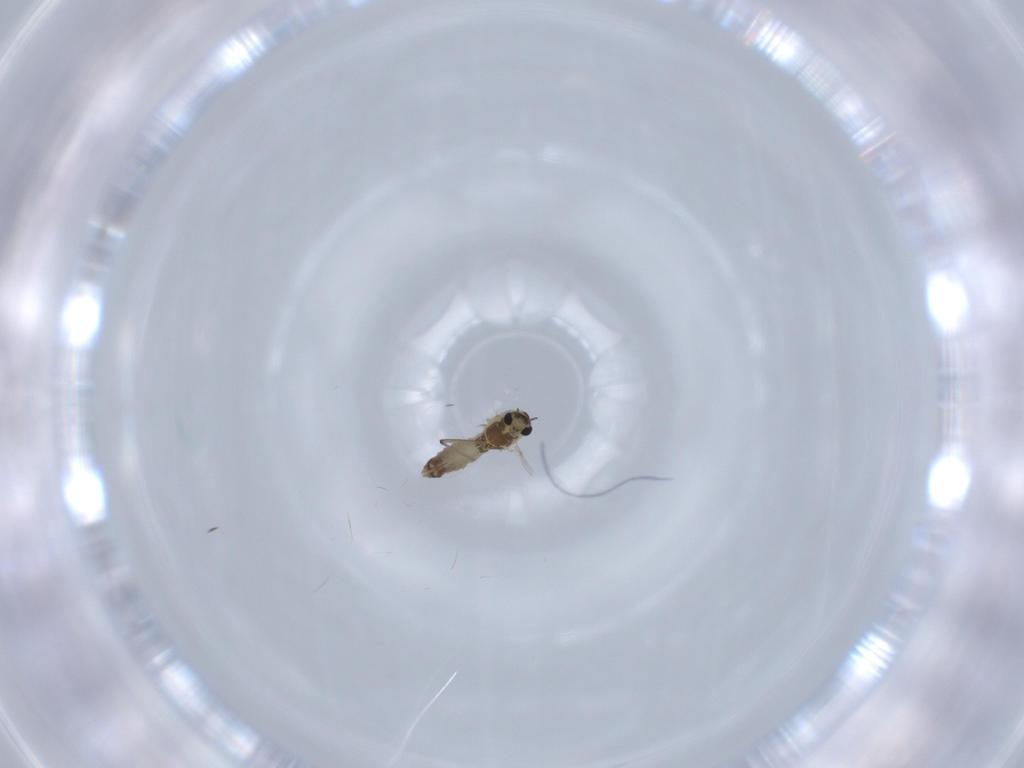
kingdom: Animalia
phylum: Arthropoda
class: Insecta
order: Diptera
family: Chironomidae
